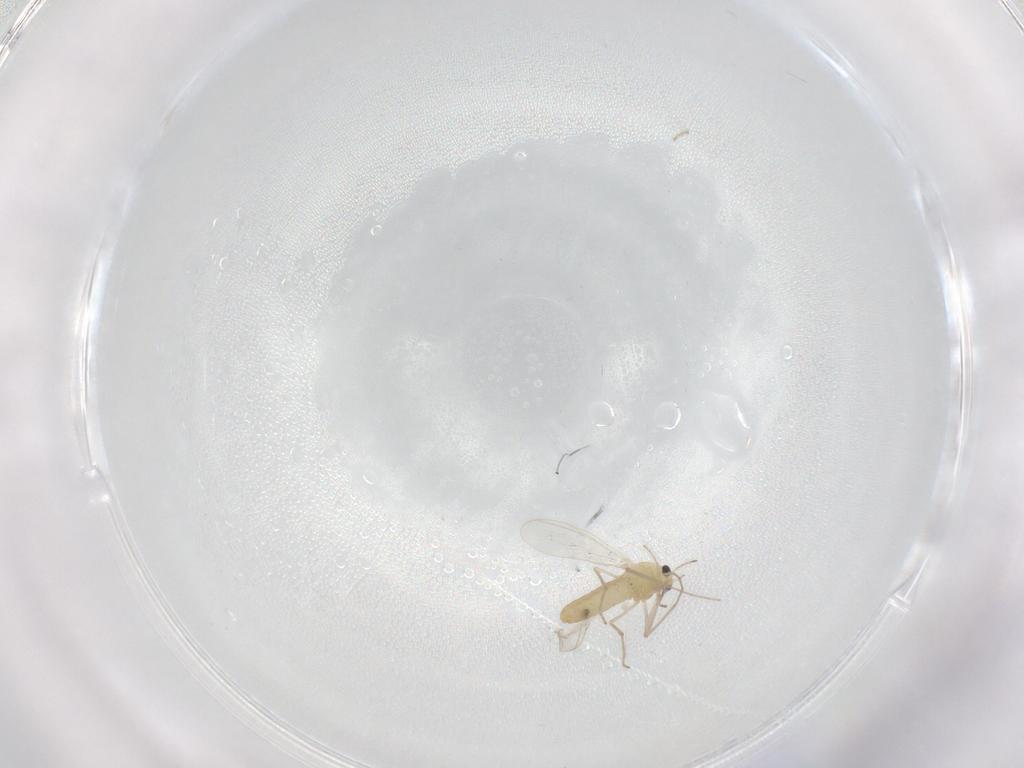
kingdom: Animalia
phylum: Arthropoda
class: Insecta
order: Diptera
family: Chironomidae
